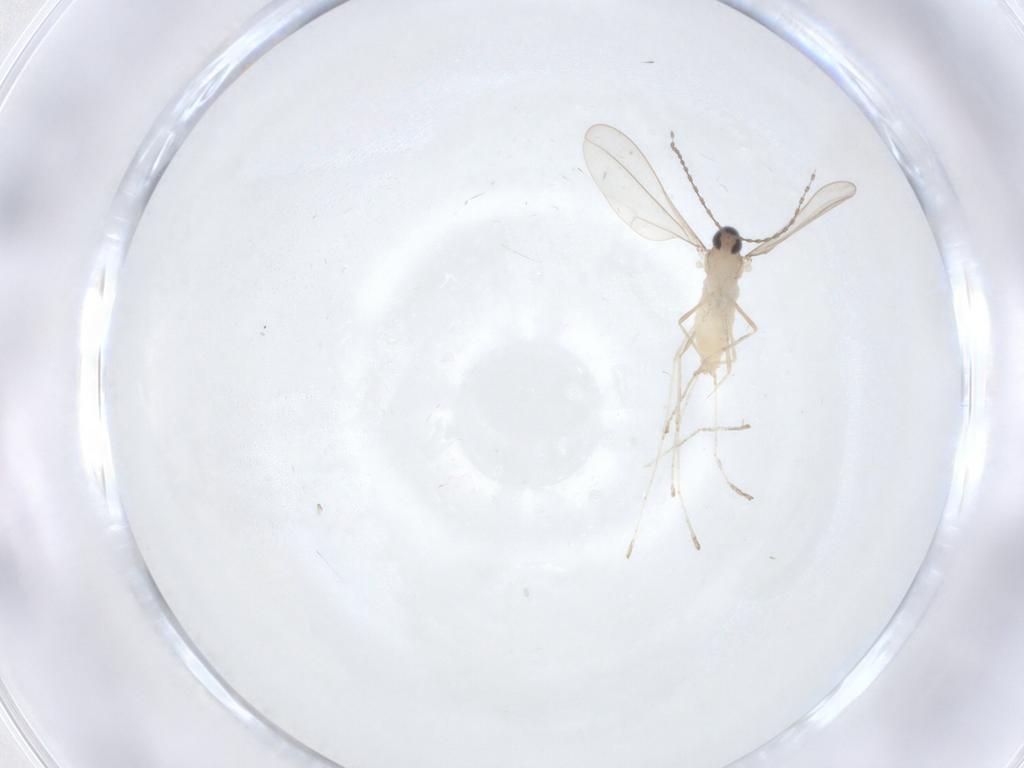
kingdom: Animalia
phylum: Arthropoda
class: Insecta
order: Diptera
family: Cecidomyiidae
